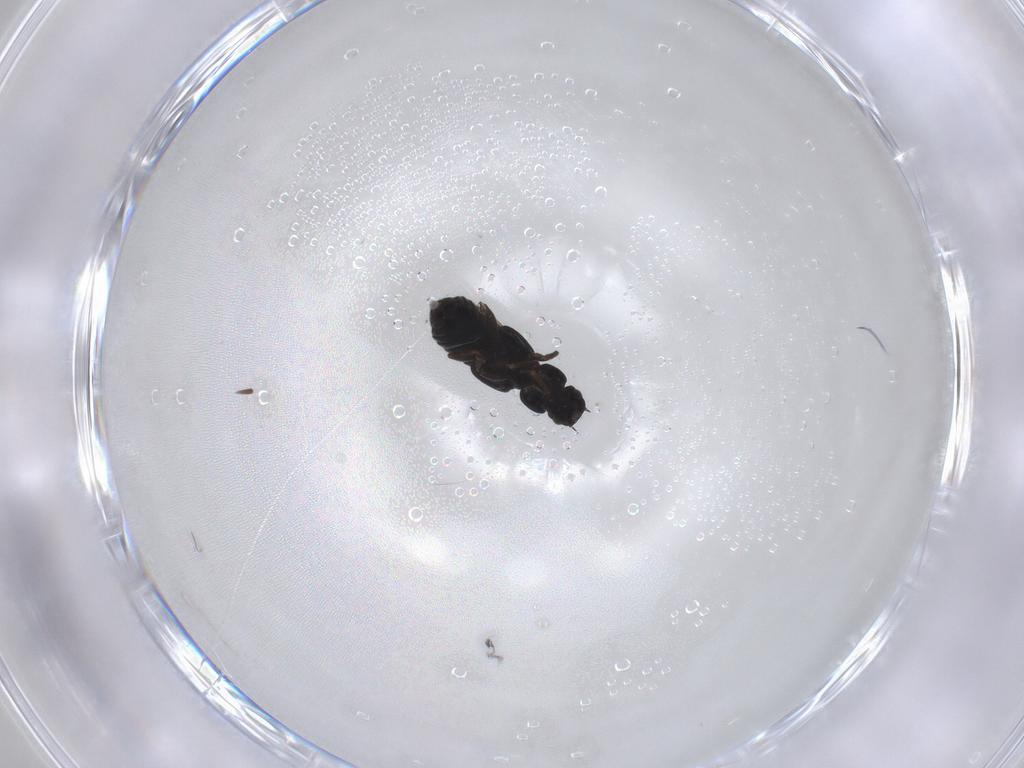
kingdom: Animalia
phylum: Arthropoda
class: Insecta
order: Coleoptera
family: Staphylinidae
